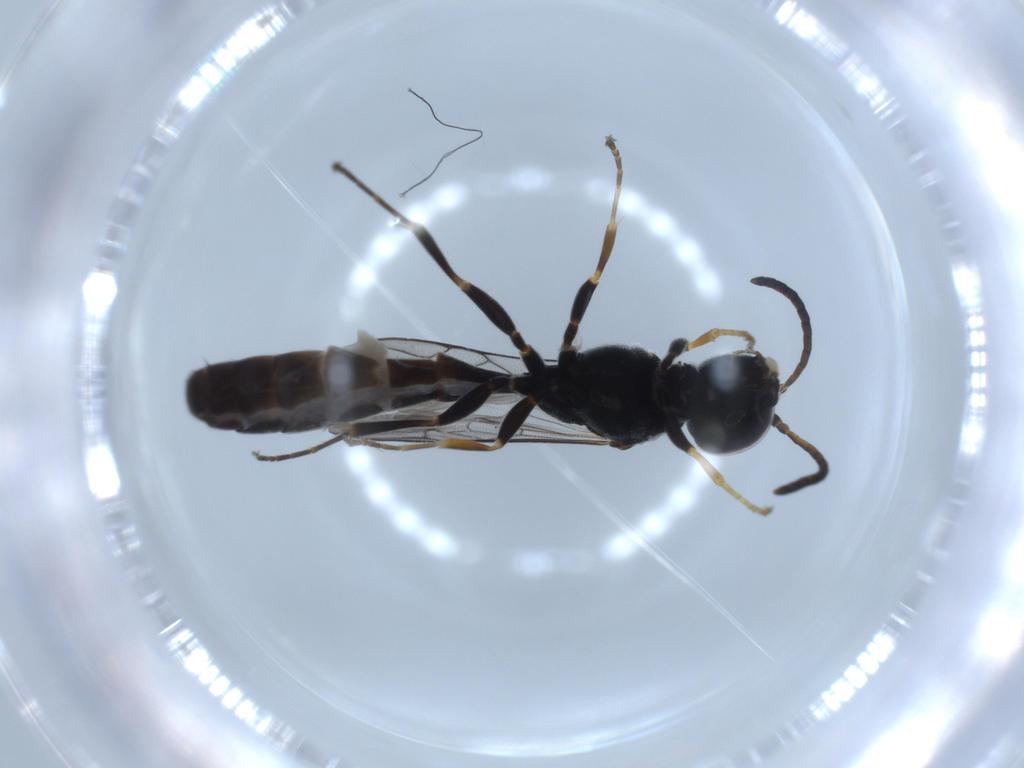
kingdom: Animalia
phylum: Arthropoda
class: Insecta
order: Hymenoptera
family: Crabronidae
